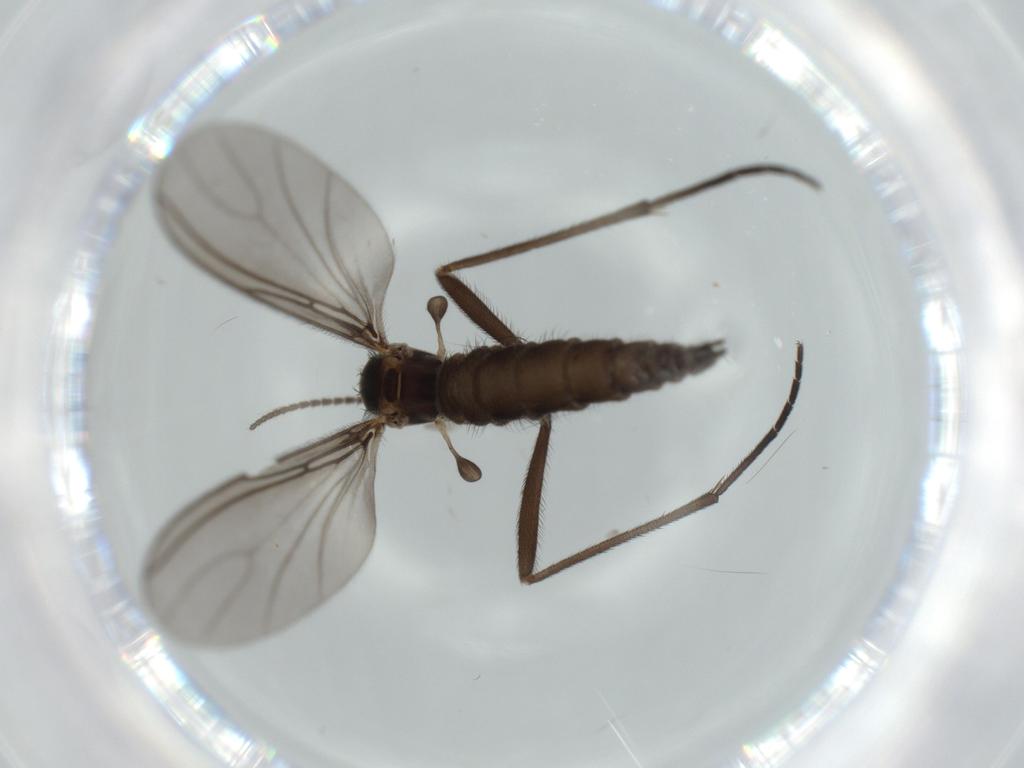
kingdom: Animalia
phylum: Arthropoda
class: Insecta
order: Diptera
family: Sciaridae
